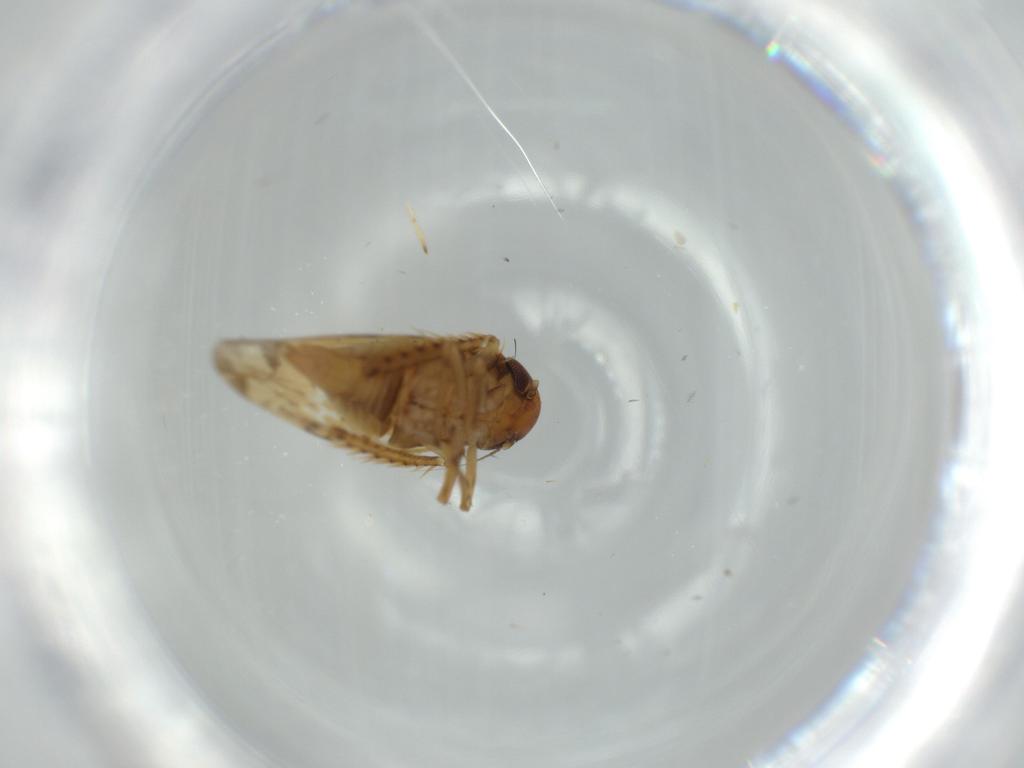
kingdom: Animalia
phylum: Arthropoda
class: Insecta
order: Hemiptera
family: Cicadellidae
